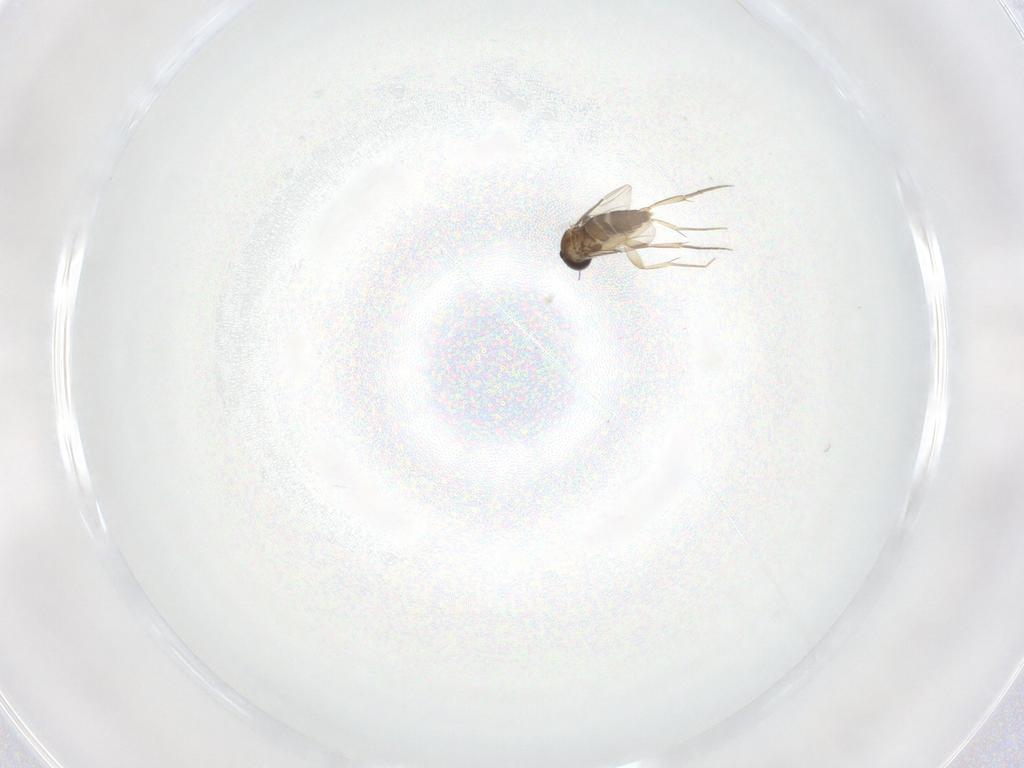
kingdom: Animalia
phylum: Arthropoda
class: Insecta
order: Diptera
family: Phoridae
